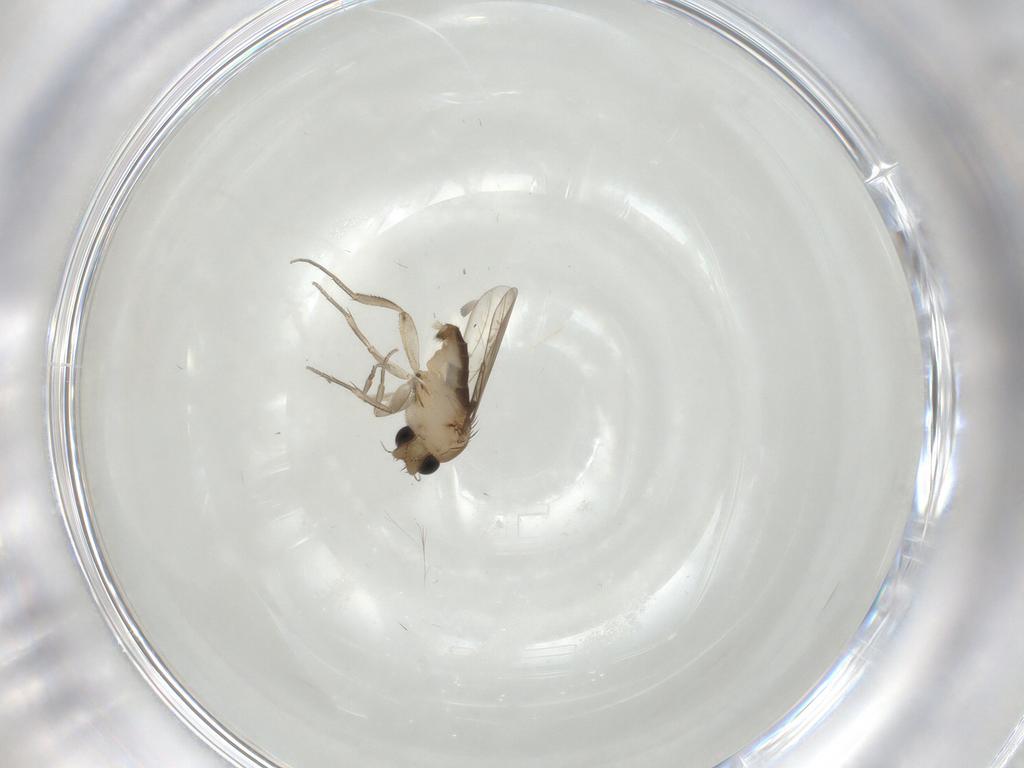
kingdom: Animalia
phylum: Arthropoda
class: Insecta
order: Diptera
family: Phoridae
